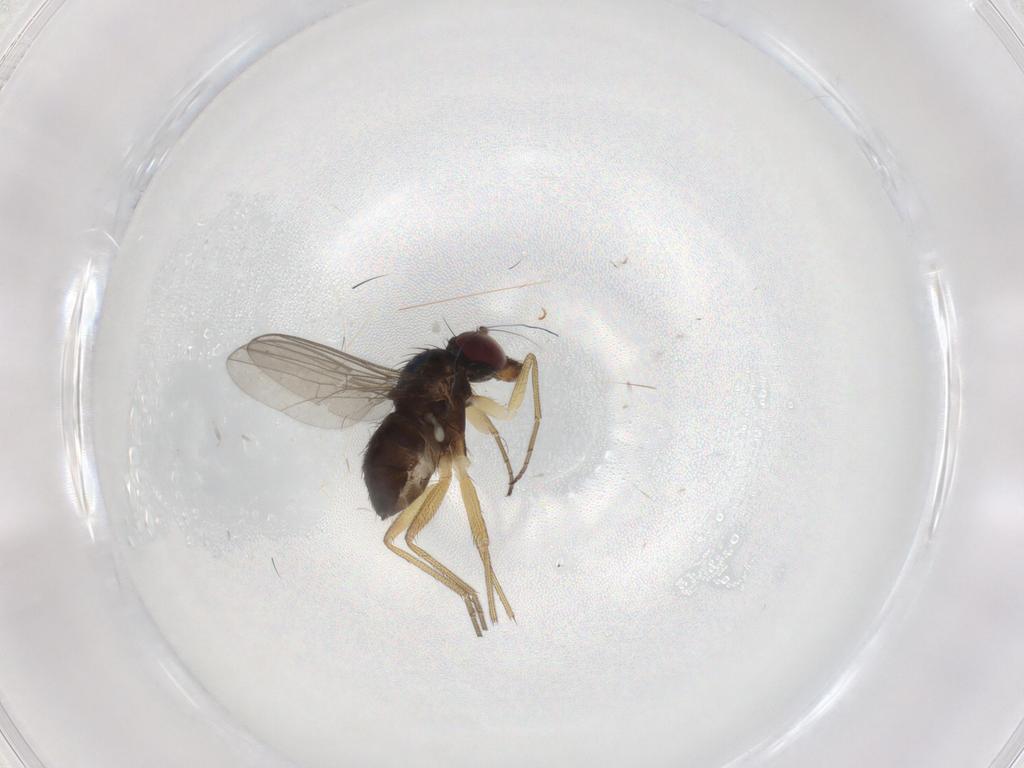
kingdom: Animalia
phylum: Arthropoda
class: Insecta
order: Diptera
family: Dolichopodidae
